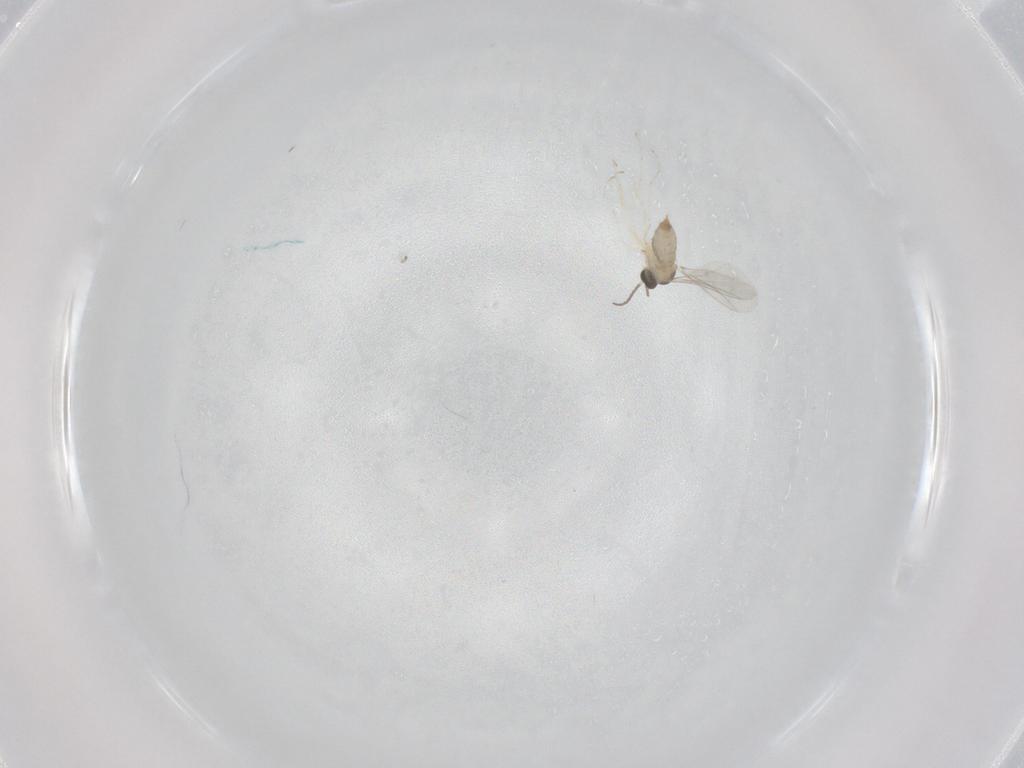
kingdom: Animalia
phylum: Arthropoda
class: Insecta
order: Diptera
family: Cecidomyiidae
